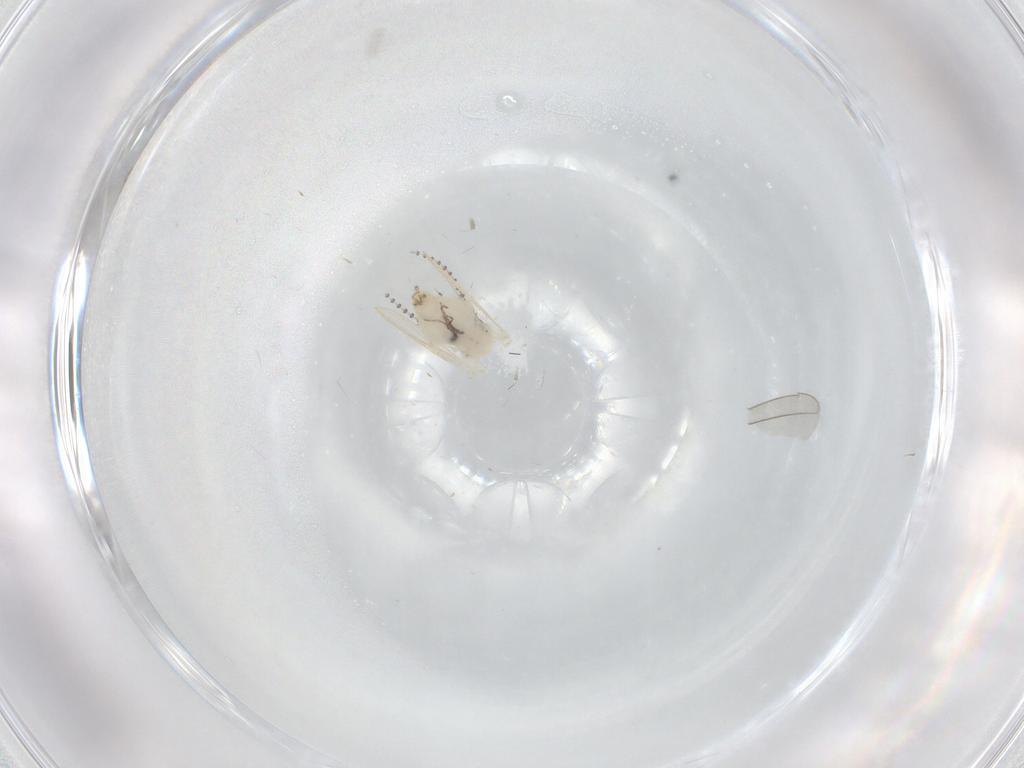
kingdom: Animalia
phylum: Arthropoda
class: Insecta
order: Diptera
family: Psychodidae
